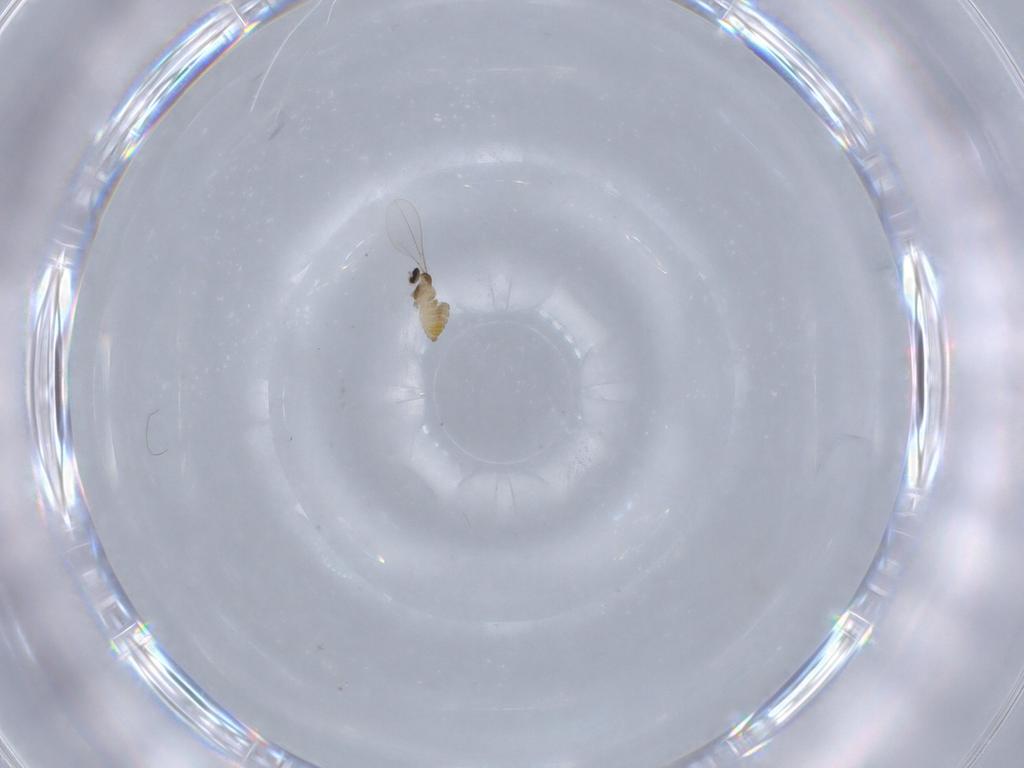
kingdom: Animalia
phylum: Arthropoda
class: Insecta
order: Diptera
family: Cecidomyiidae
